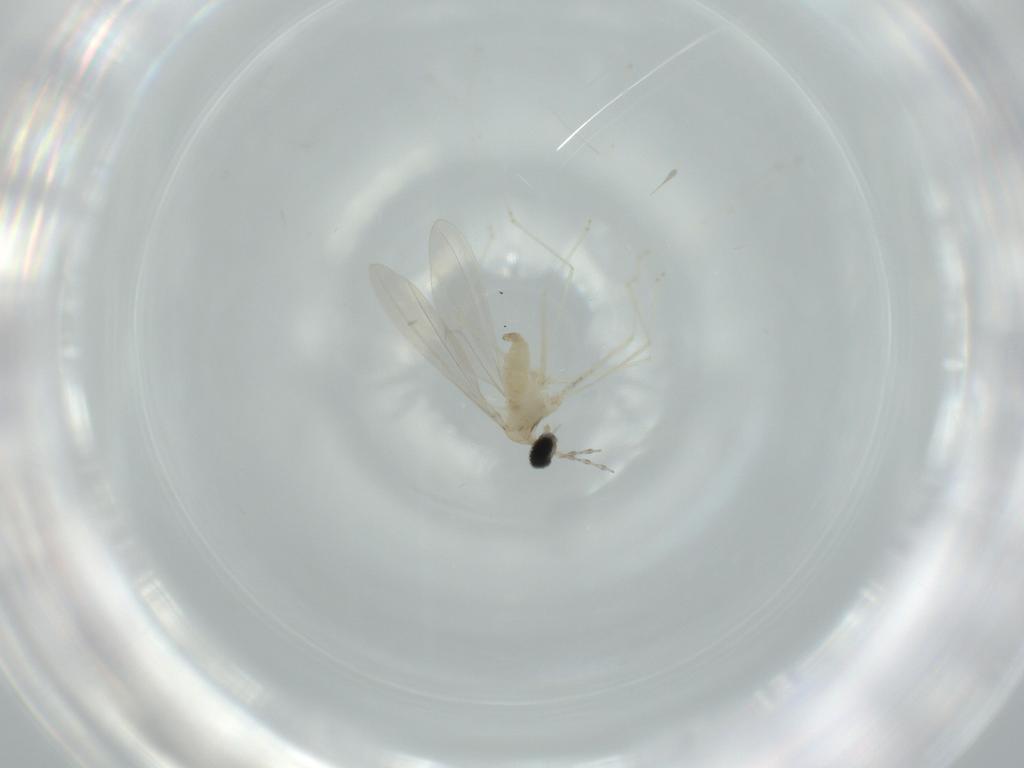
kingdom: Animalia
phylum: Arthropoda
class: Insecta
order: Diptera
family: Cecidomyiidae
